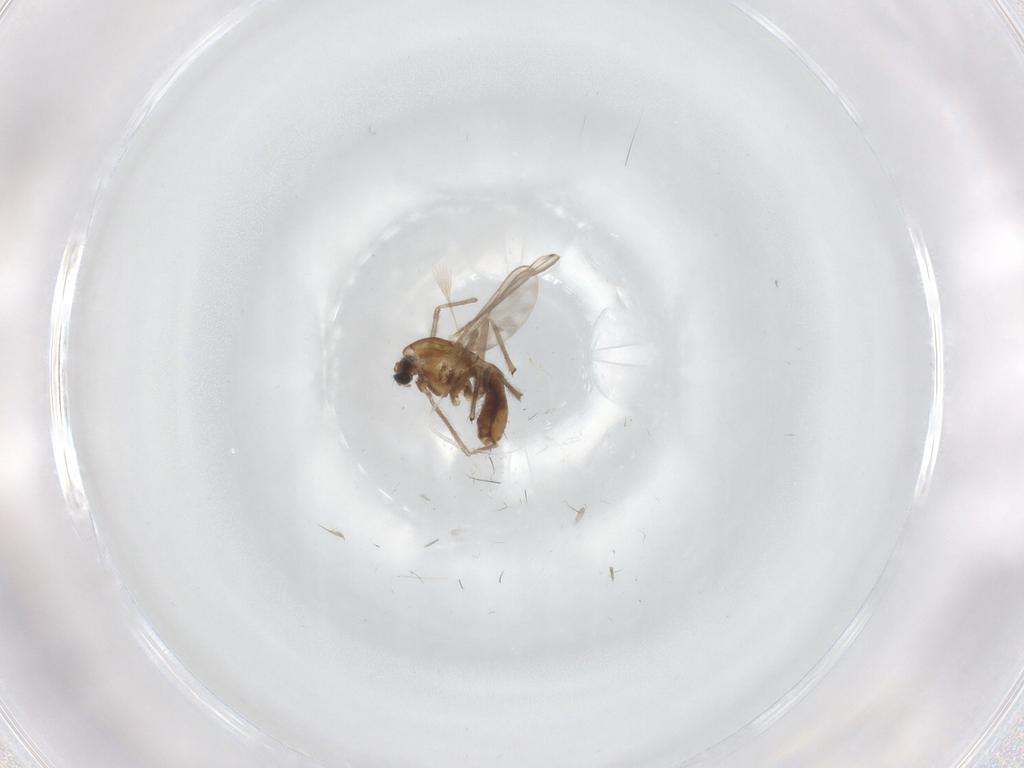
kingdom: Animalia
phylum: Arthropoda
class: Insecta
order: Diptera
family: Chironomidae
